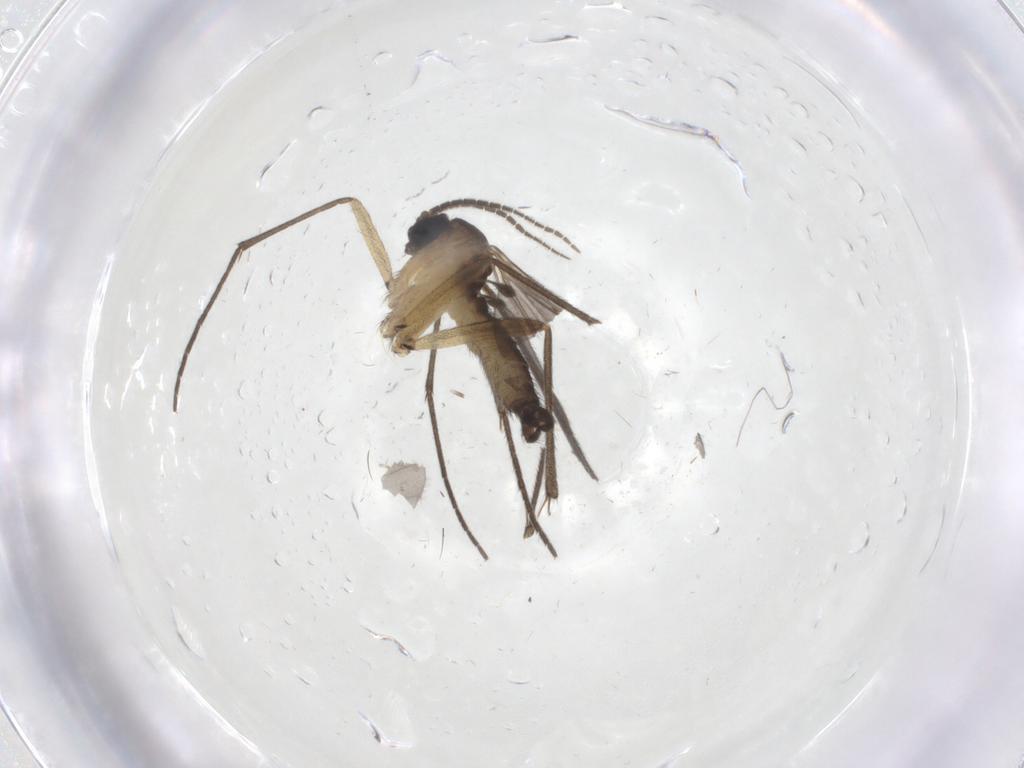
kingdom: Animalia
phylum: Arthropoda
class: Insecta
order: Diptera
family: Sciaridae
